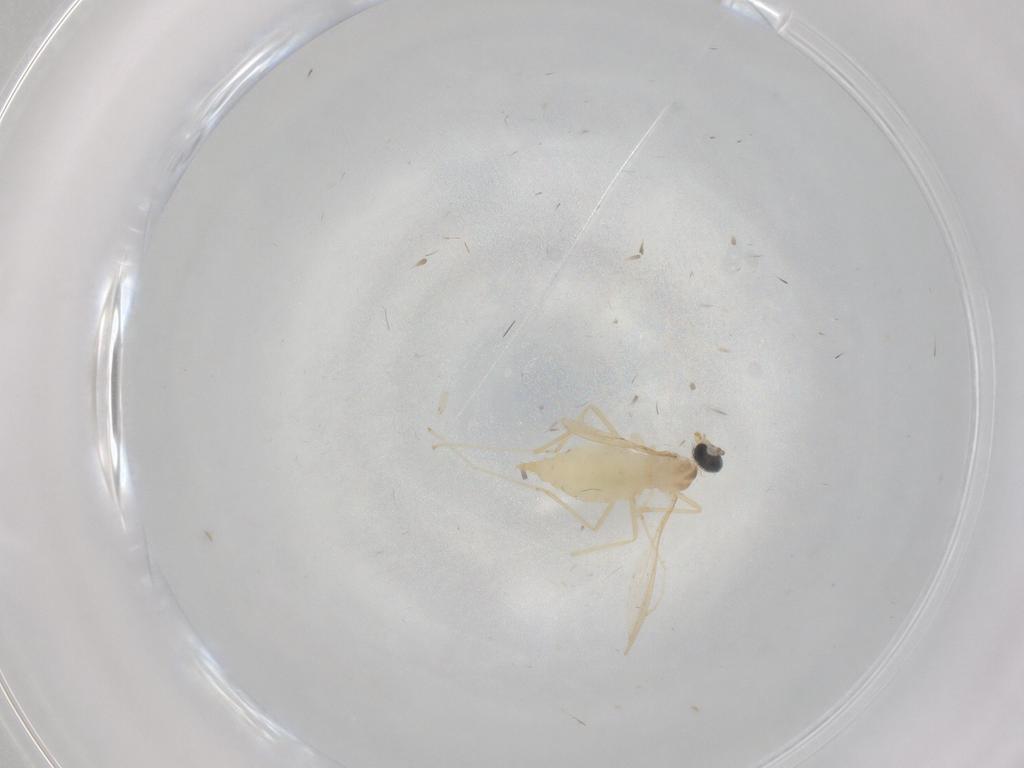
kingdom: Animalia
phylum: Arthropoda
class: Insecta
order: Diptera
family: Cecidomyiidae
